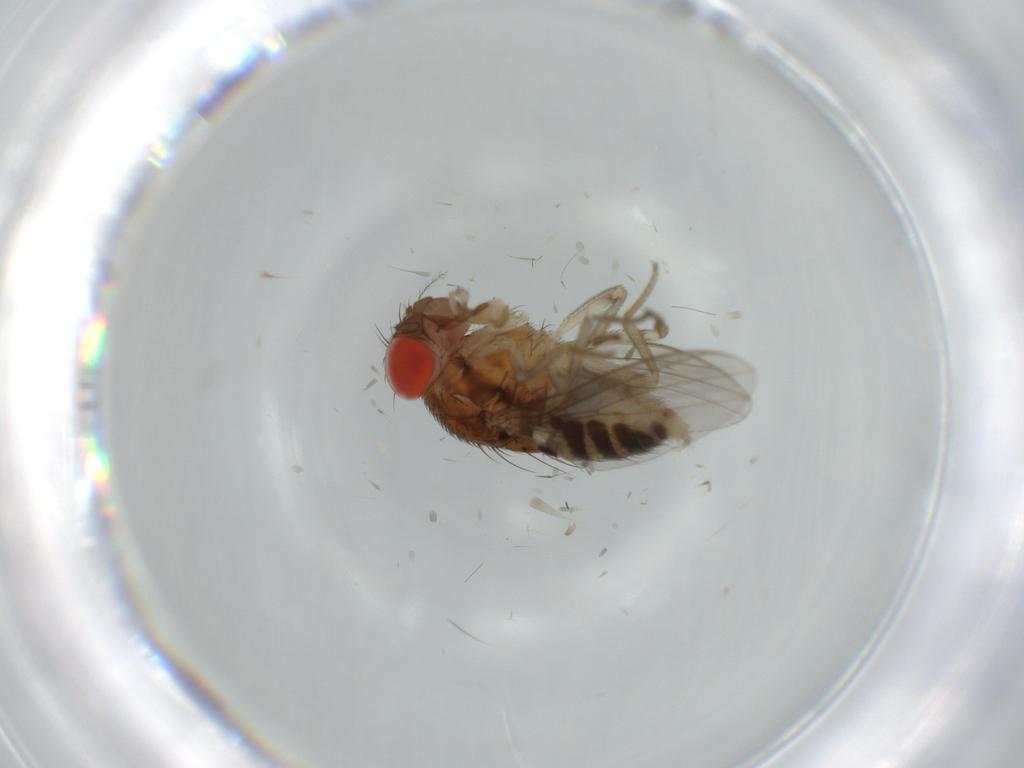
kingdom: Animalia
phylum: Arthropoda
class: Insecta
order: Diptera
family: Drosophilidae
